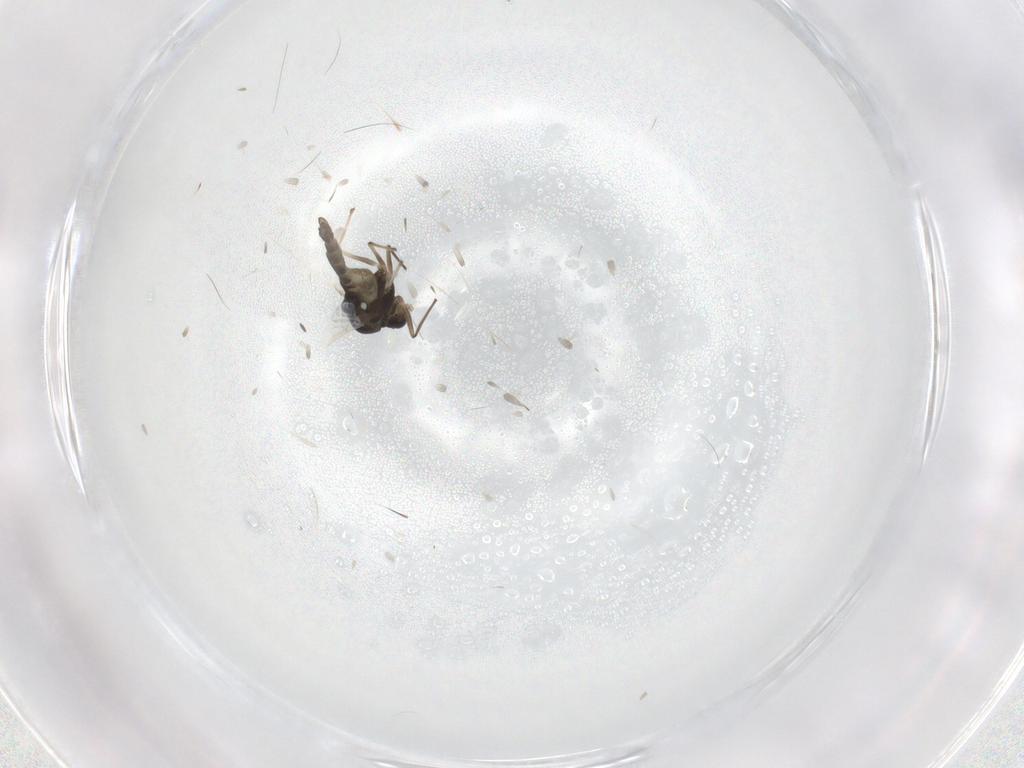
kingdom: Animalia
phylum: Arthropoda
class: Insecta
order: Diptera
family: Chironomidae
